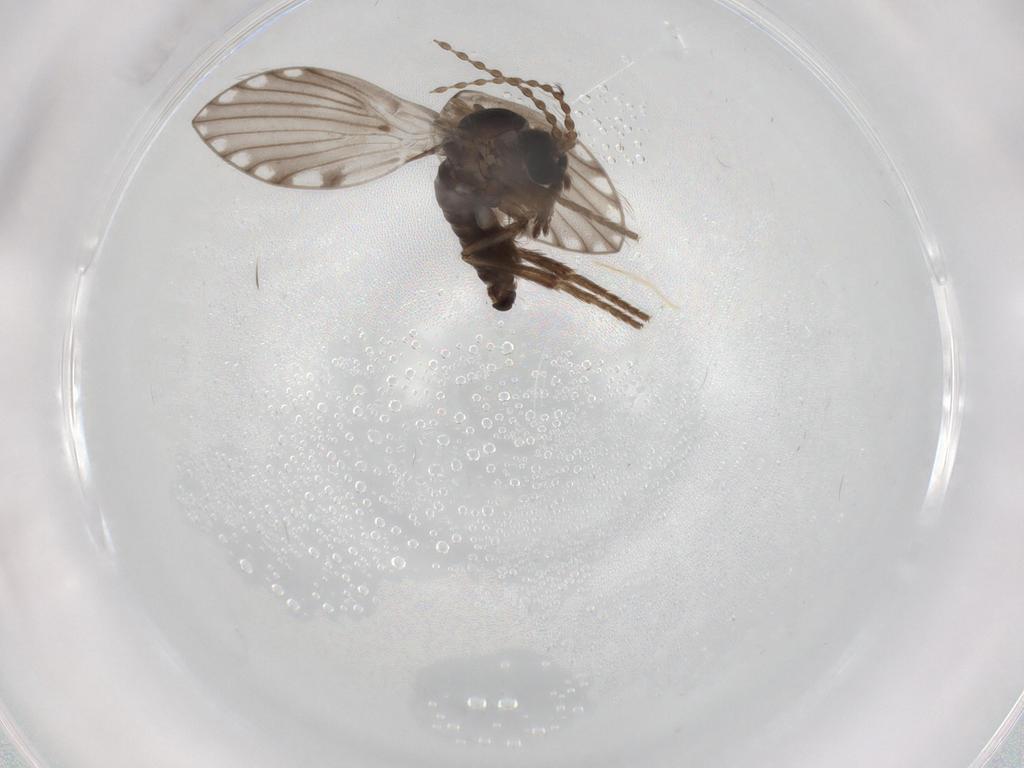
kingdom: Animalia
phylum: Arthropoda
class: Insecta
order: Diptera
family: Psychodidae
